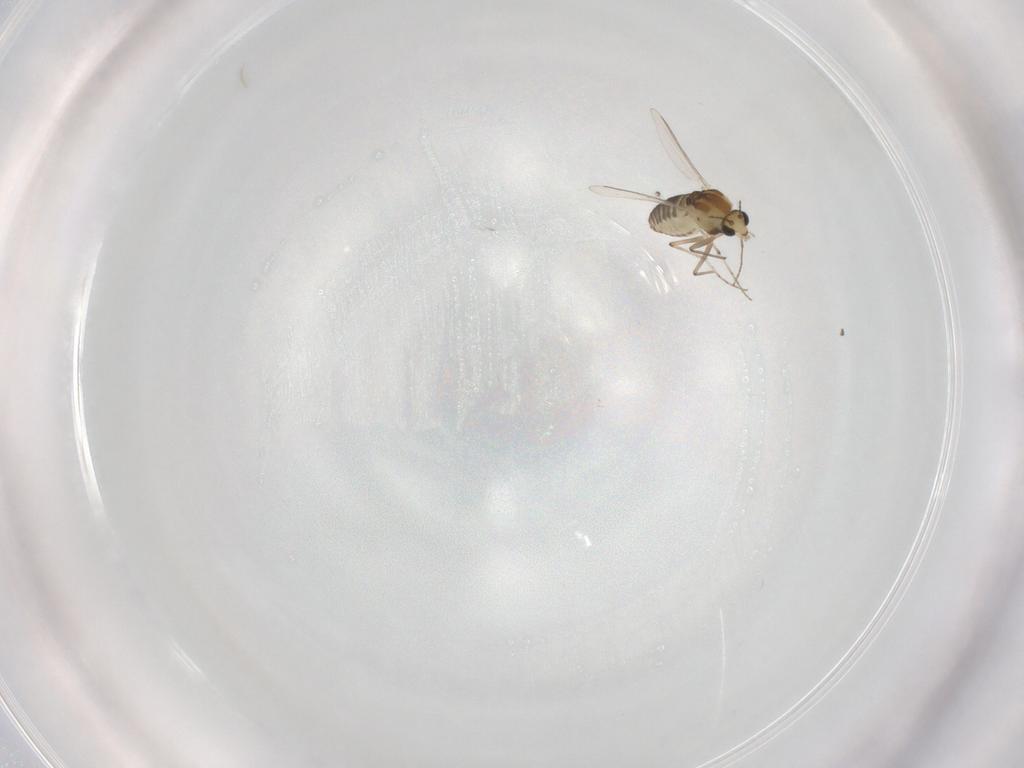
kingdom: Animalia
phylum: Arthropoda
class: Insecta
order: Diptera
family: Chironomidae
